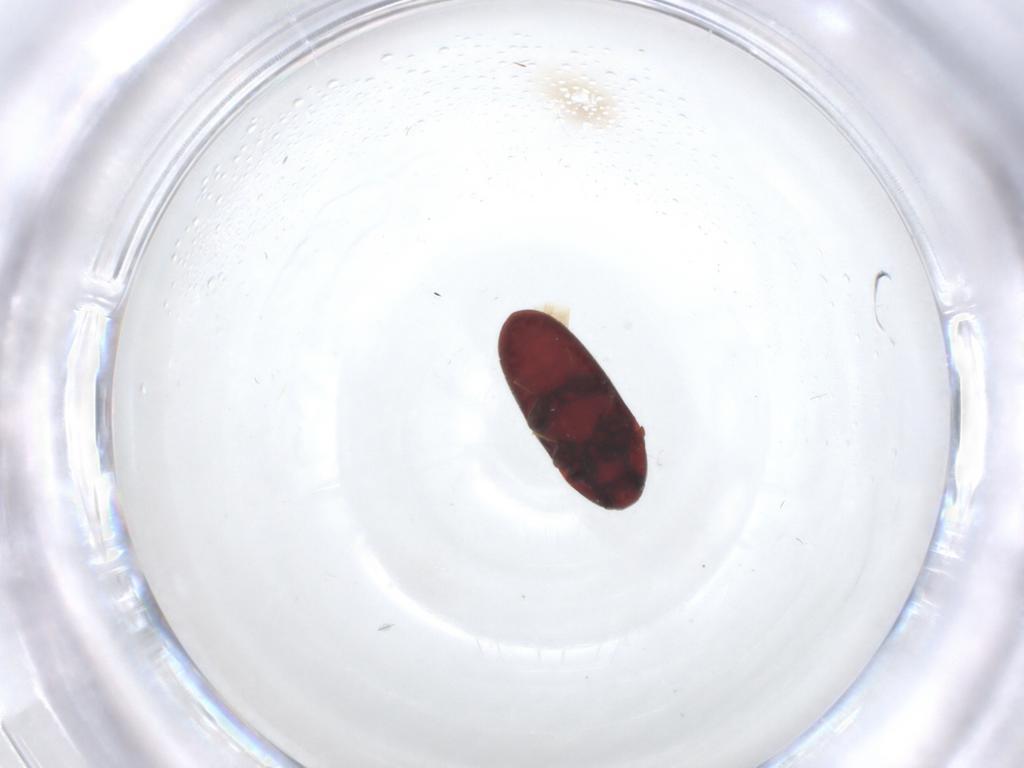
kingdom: Animalia
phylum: Arthropoda
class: Insecta
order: Coleoptera
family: Throscidae
